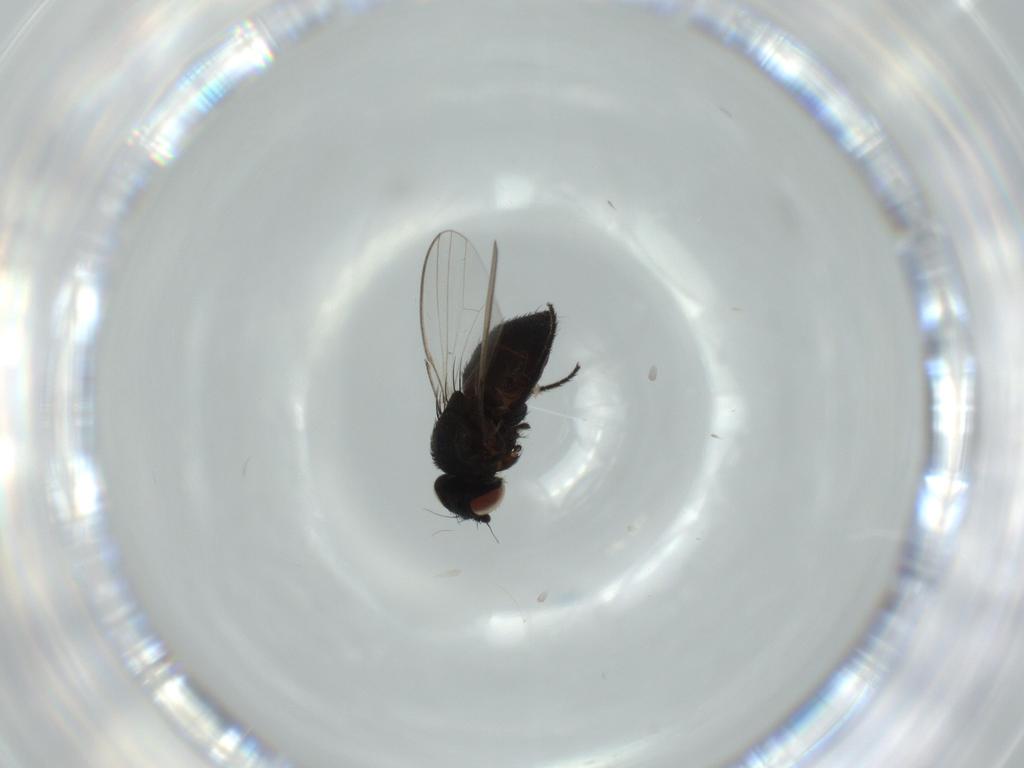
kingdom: Animalia
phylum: Arthropoda
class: Insecta
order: Diptera
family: Milichiidae
